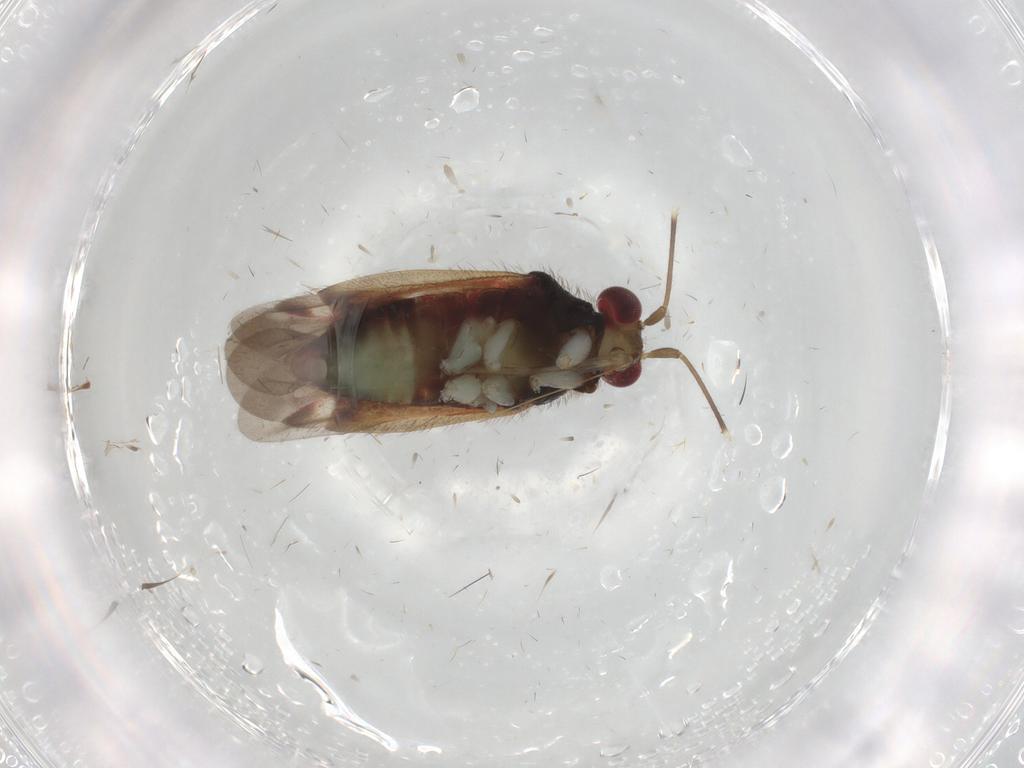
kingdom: Animalia
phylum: Arthropoda
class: Insecta
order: Hemiptera
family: Miridae
